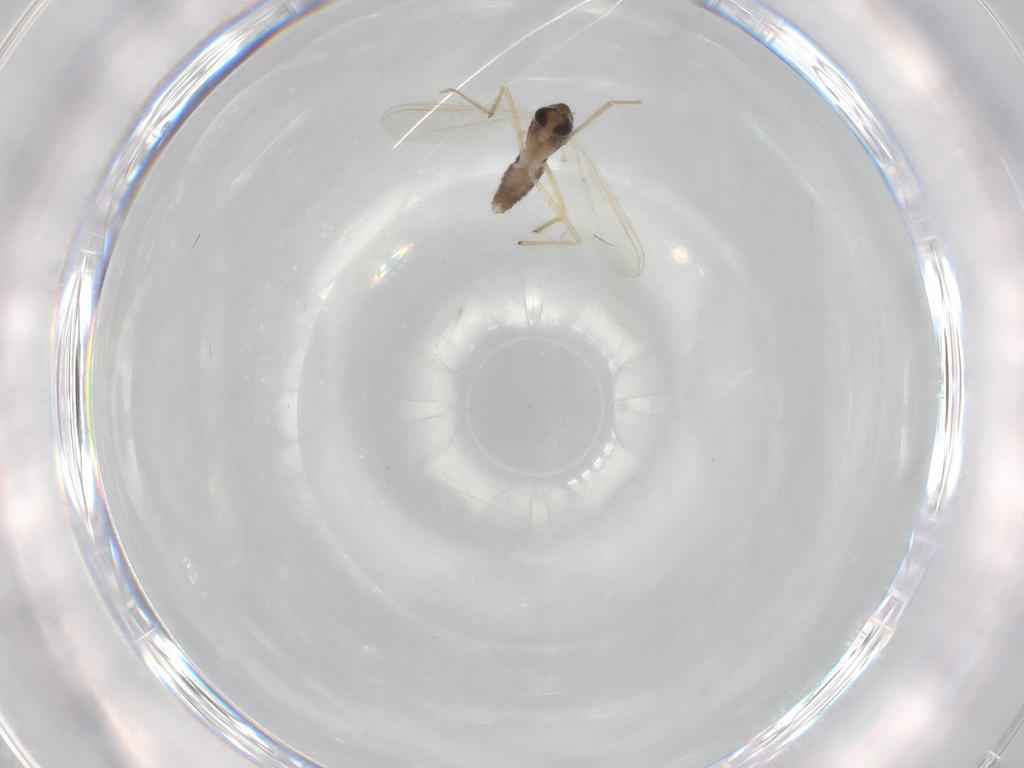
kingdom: Animalia
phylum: Arthropoda
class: Insecta
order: Diptera
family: Chironomidae
